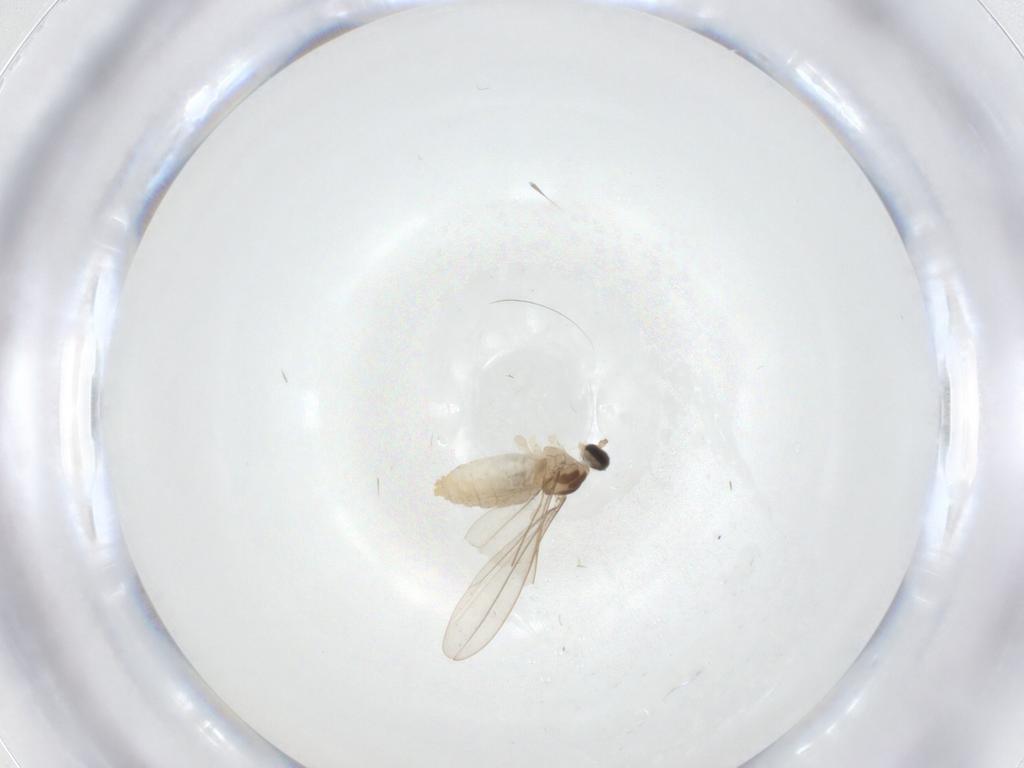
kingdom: Animalia
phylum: Arthropoda
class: Insecta
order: Diptera
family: Cecidomyiidae
